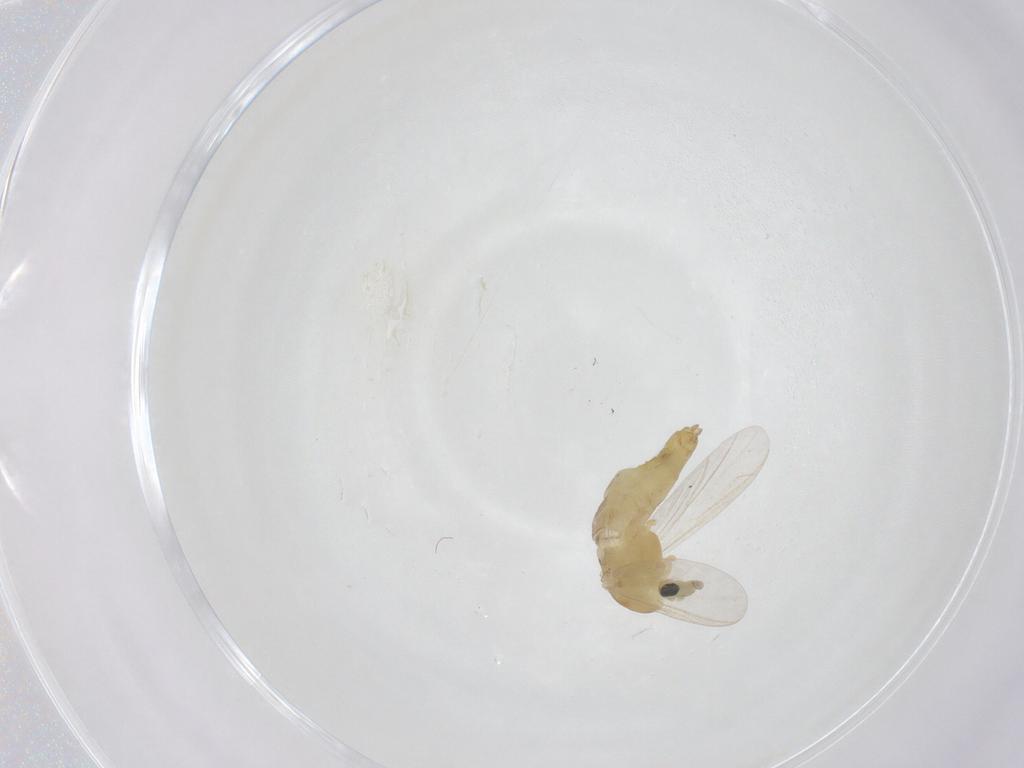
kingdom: Animalia
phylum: Arthropoda
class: Insecta
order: Diptera
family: Chironomidae
